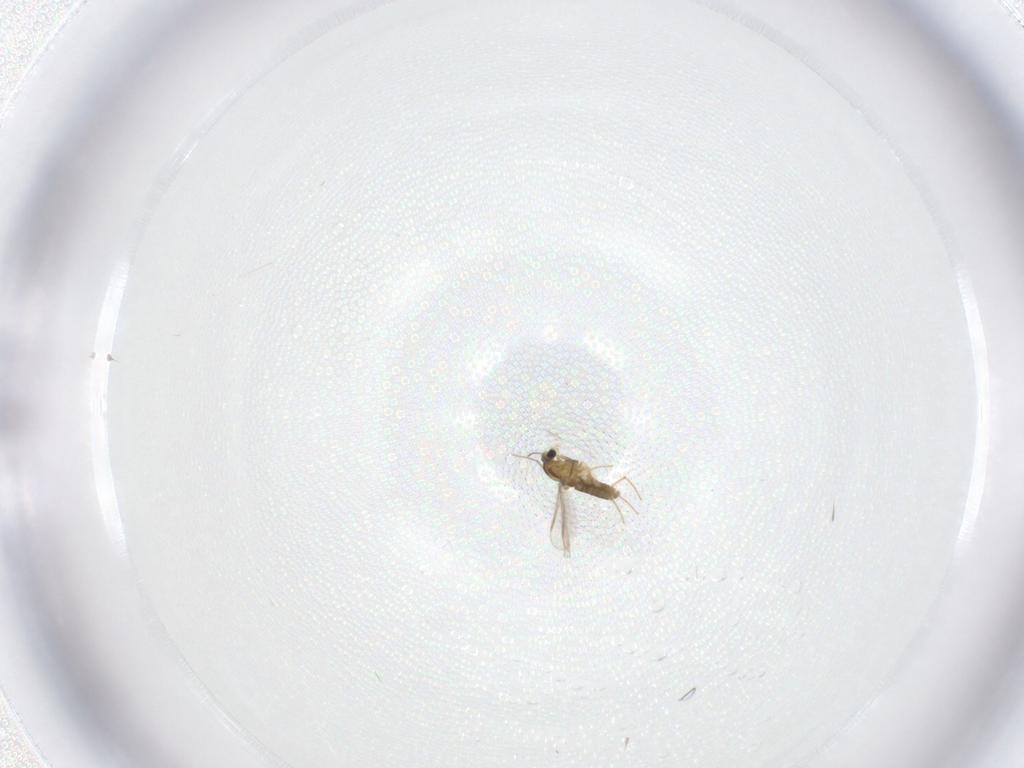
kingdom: Animalia
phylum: Arthropoda
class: Insecta
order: Diptera
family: Chironomidae
